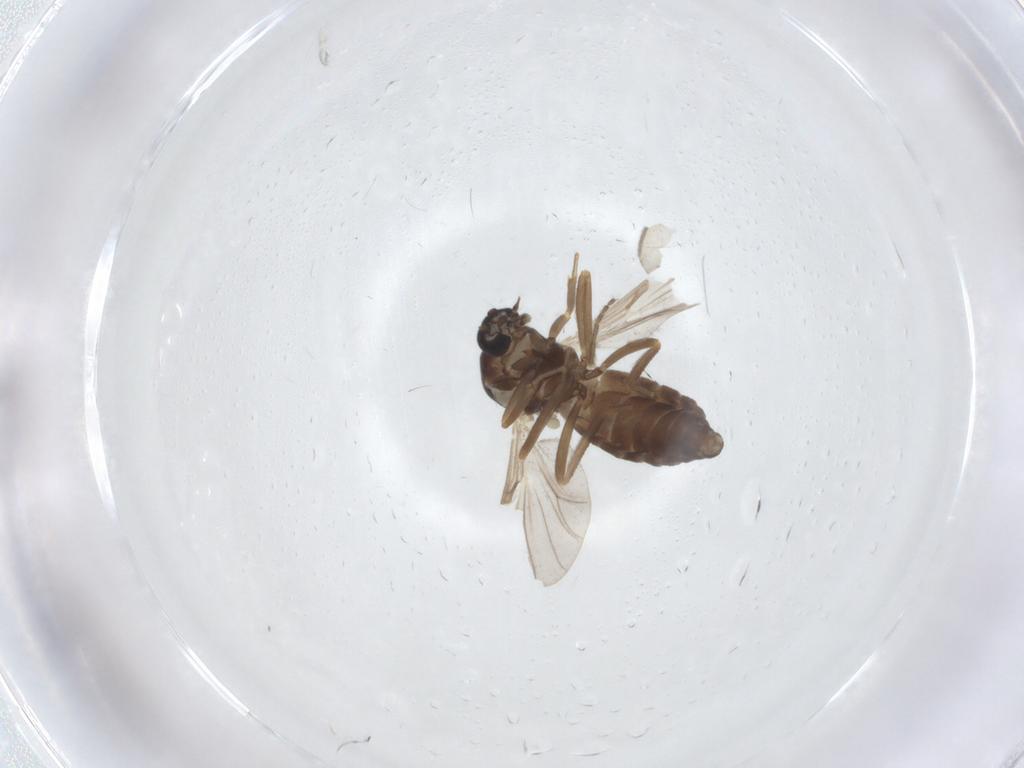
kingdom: Animalia
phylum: Arthropoda
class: Insecta
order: Diptera
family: Ceratopogonidae
